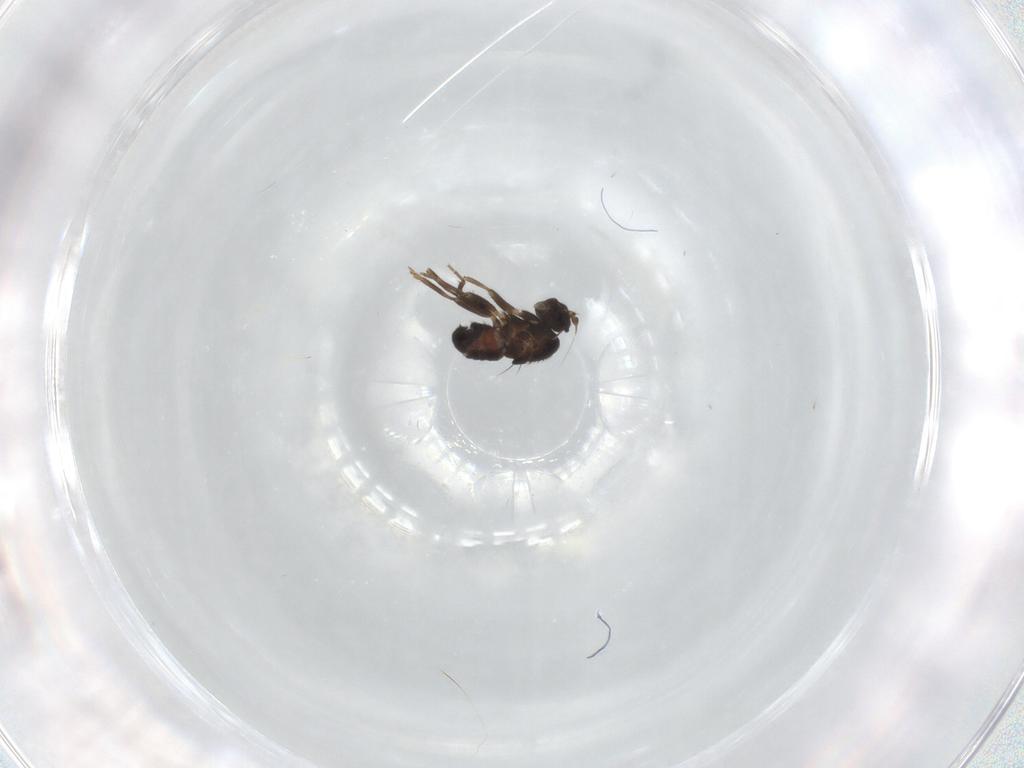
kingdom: Animalia
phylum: Arthropoda
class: Insecta
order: Diptera
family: Sphaeroceridae
